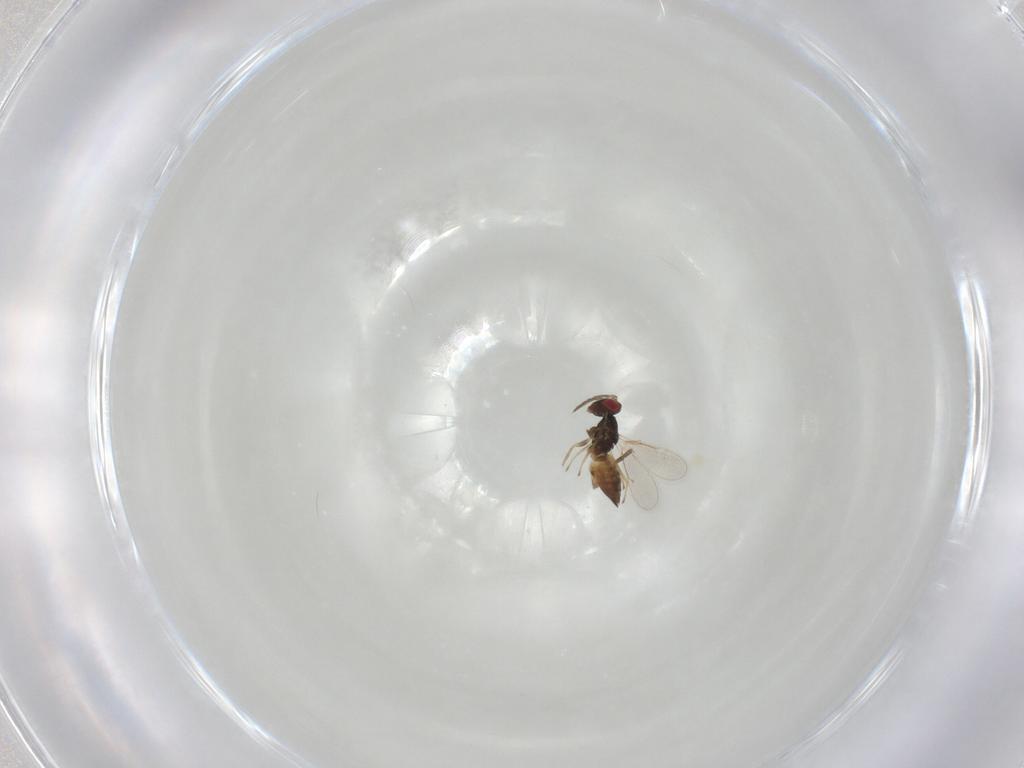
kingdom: Animalia
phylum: Arthropoda
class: Insecta
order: Hymenoptera
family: Eulophidae
